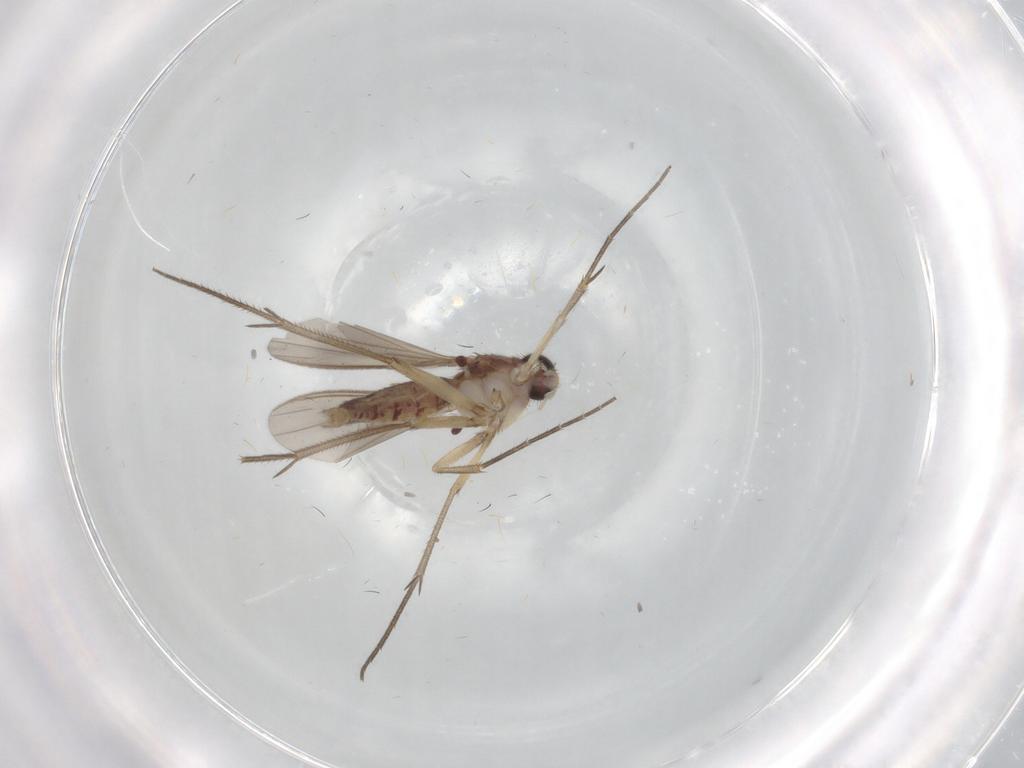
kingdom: Animalia
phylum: Arthropoda
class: Insecta
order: Diptera
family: Mycetophilidae
